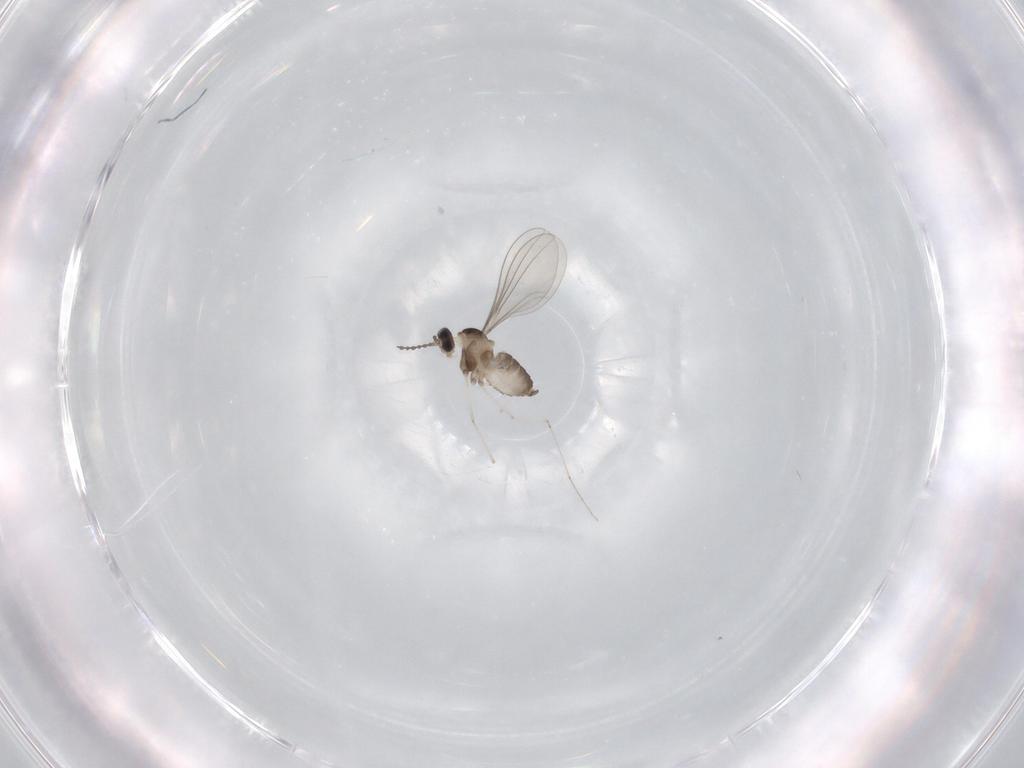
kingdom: Animalia
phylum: Arthropoda
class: Insecta
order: Diptera
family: Cecidomyiidae
